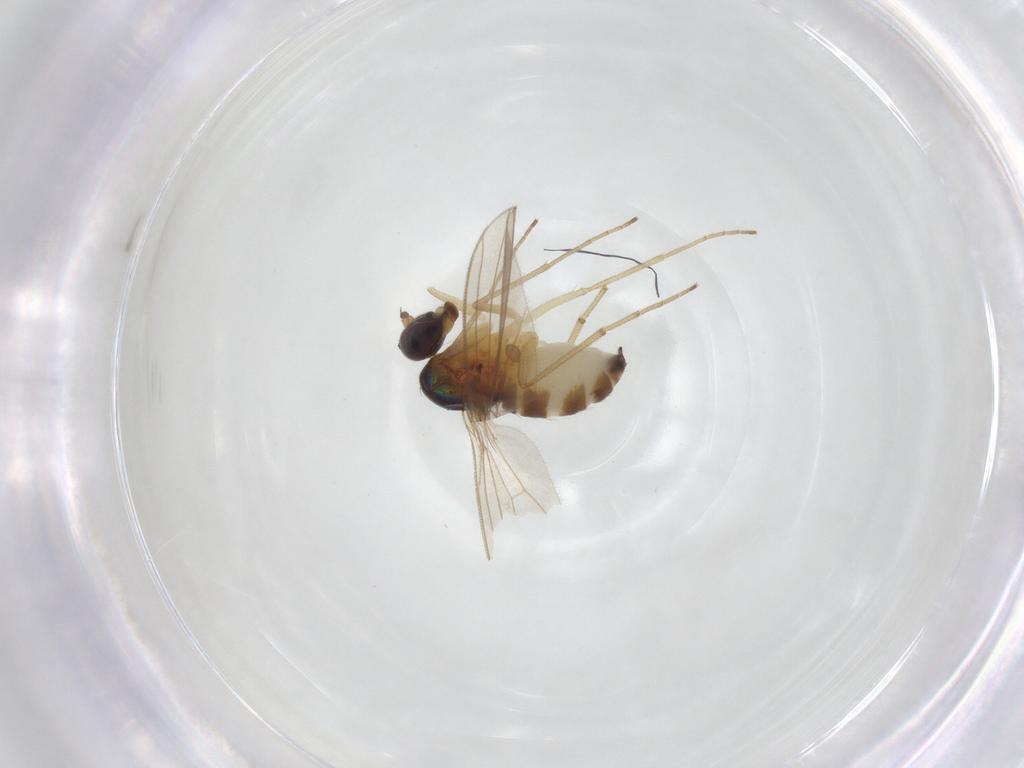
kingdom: Animalia
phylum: Arthropoda
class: Insecta
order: Diptera
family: Dolichopodidae
